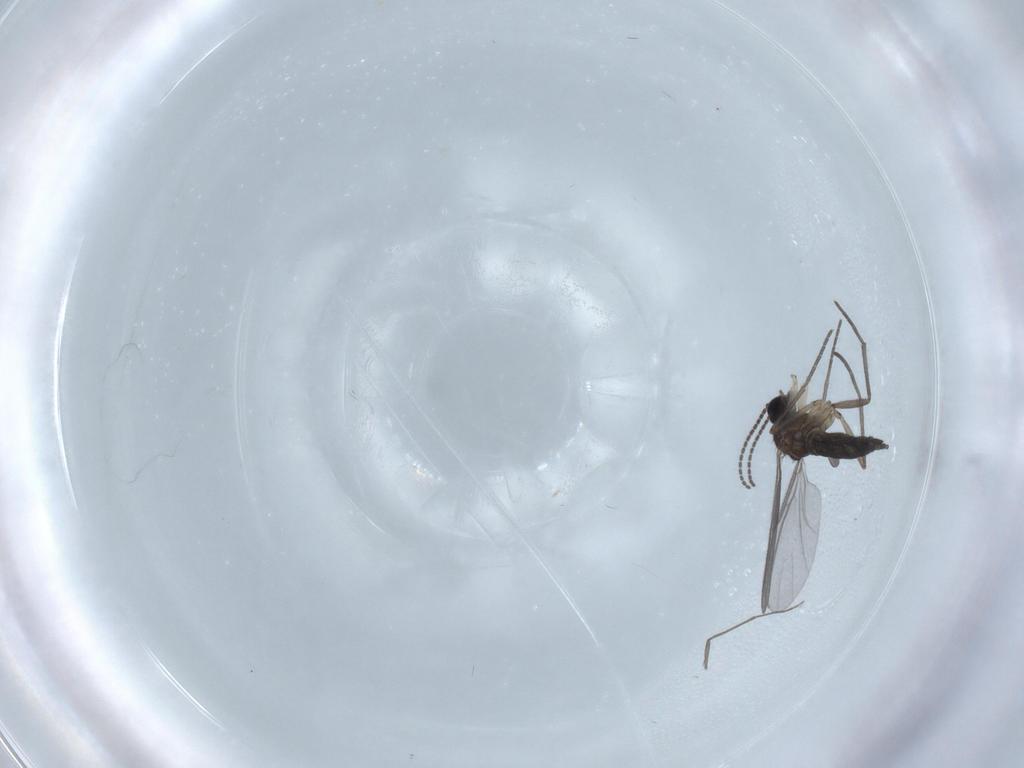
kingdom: Animalia
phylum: Arthropoda
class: Insecta
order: Diptera
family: Sciaridae
